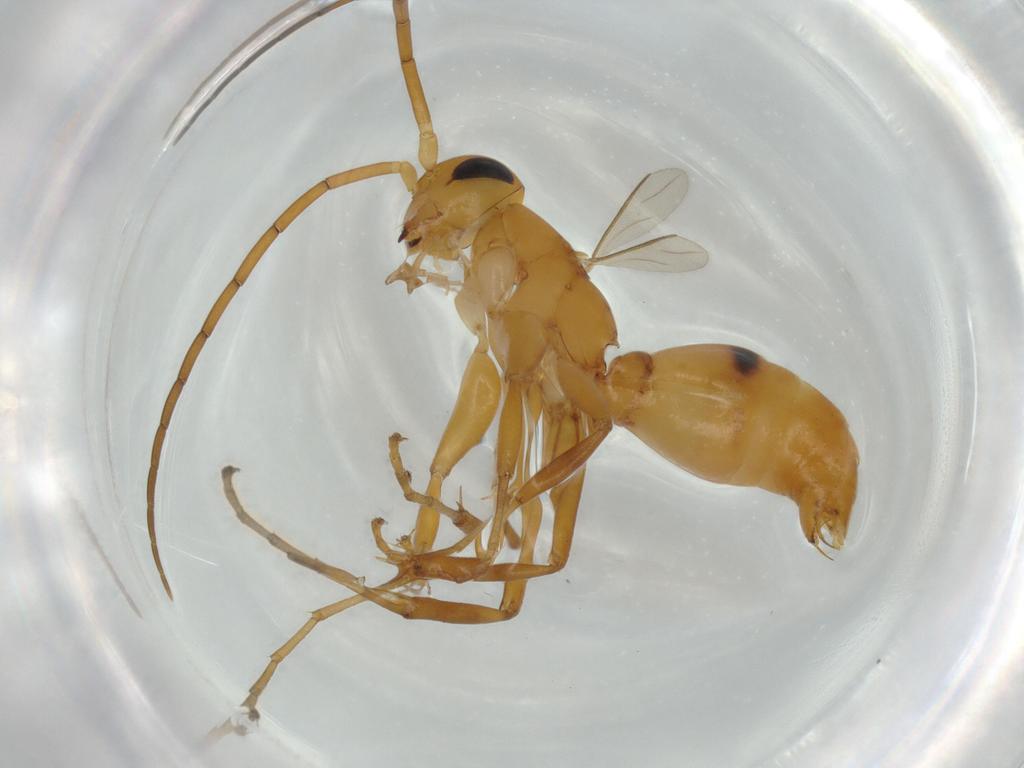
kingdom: Animalia
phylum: Arthropoda
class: Insecta
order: Hymenoptera
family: Rhopalosomatidae
